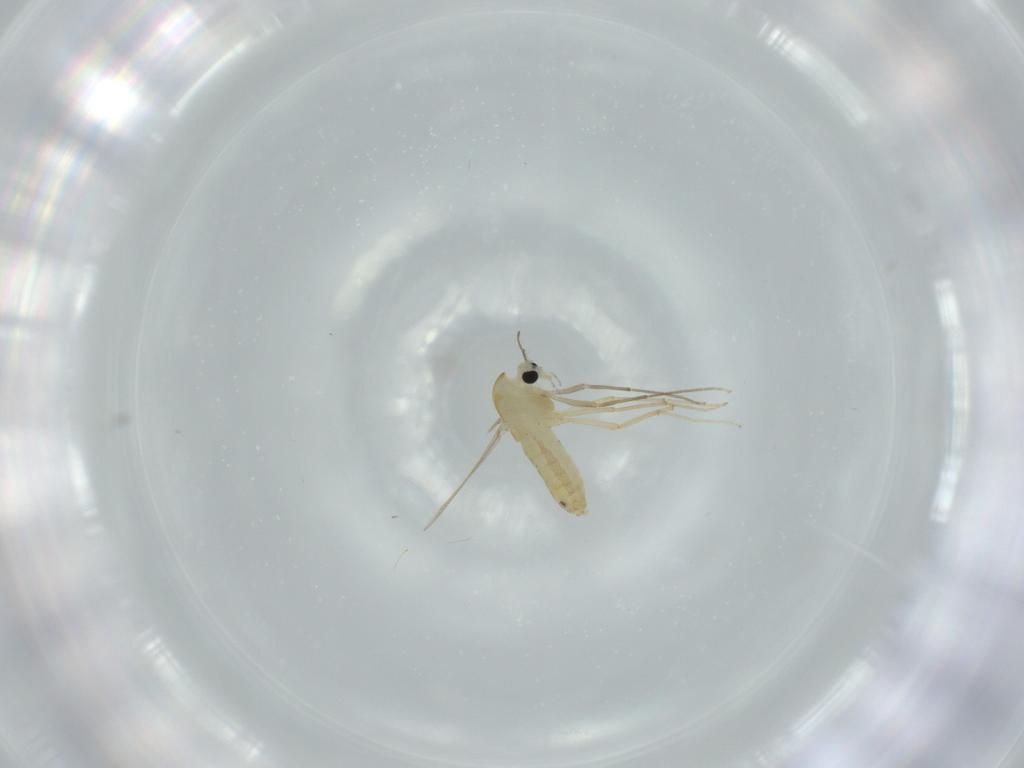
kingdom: Animalia
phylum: Arthropoda
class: Insecta
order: Diptera
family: Chironomidae
